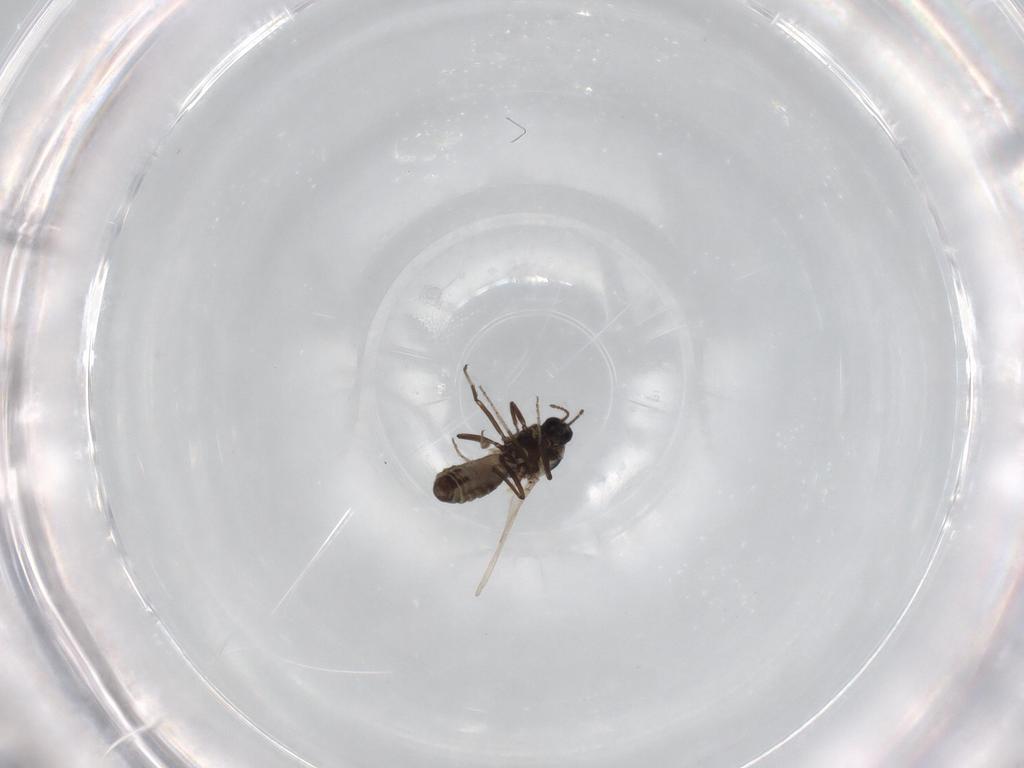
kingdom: Animalia
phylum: Arthropoda
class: Insecta
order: Diptera
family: Ceratopogonidae
